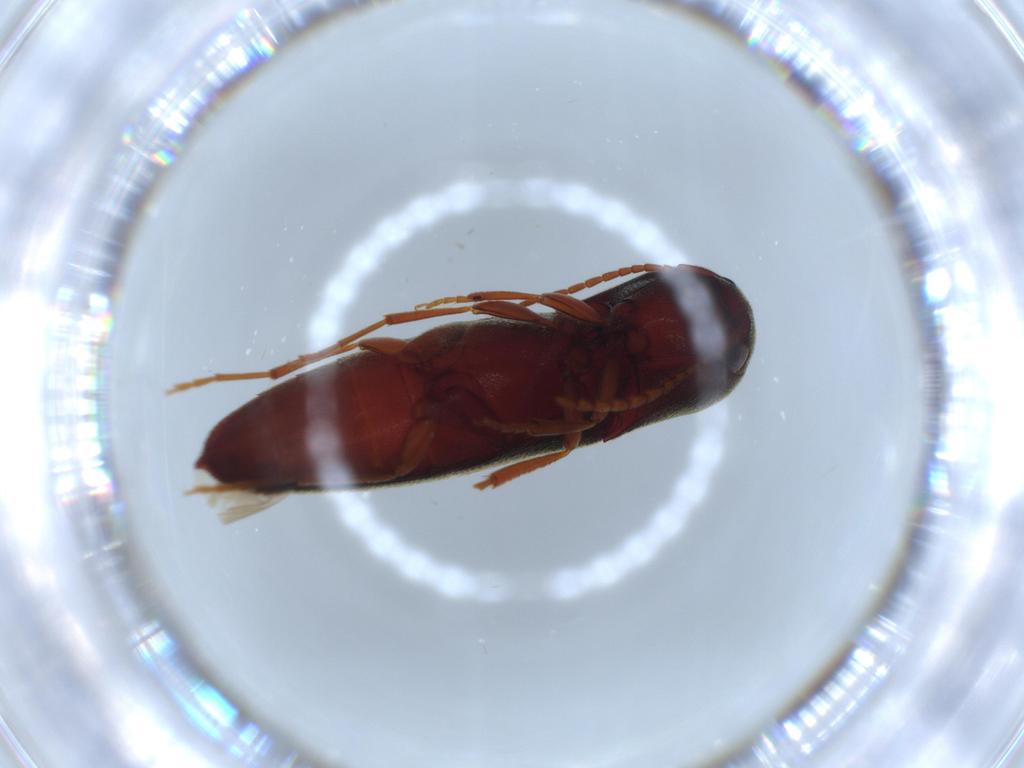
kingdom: Animalia
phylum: Arthropoda
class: Insecta
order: Coleoptera
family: Eucnemidae
